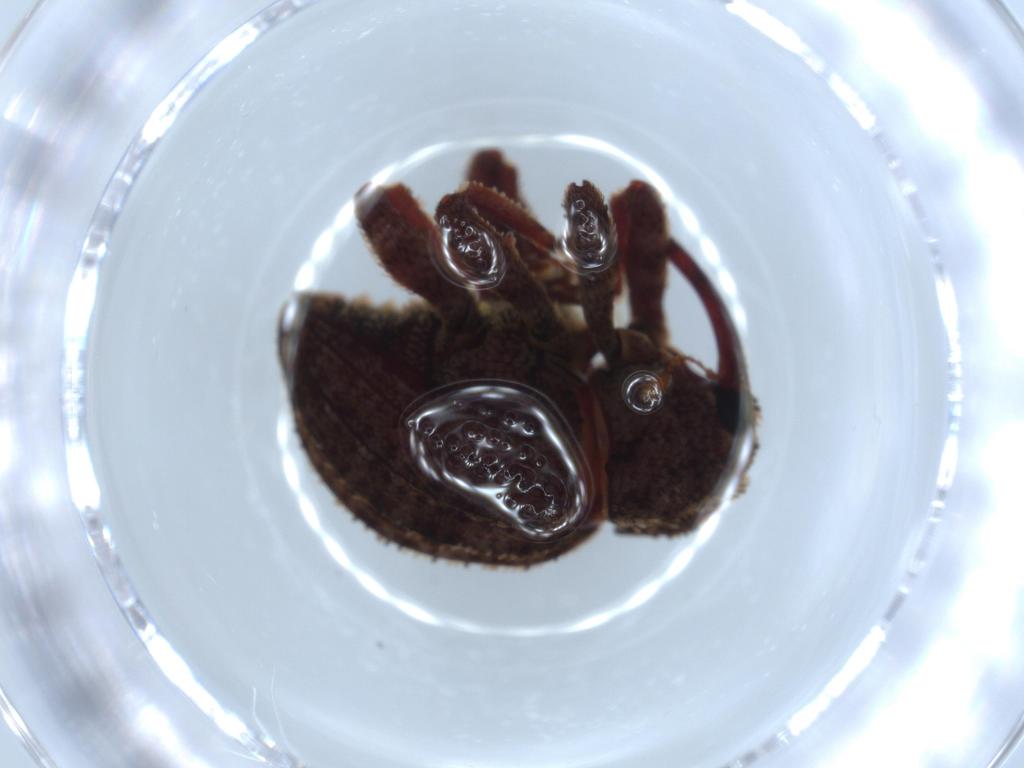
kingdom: Animalia
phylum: Arthropoda
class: Insecta
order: Coleoptera
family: Curculionidae
